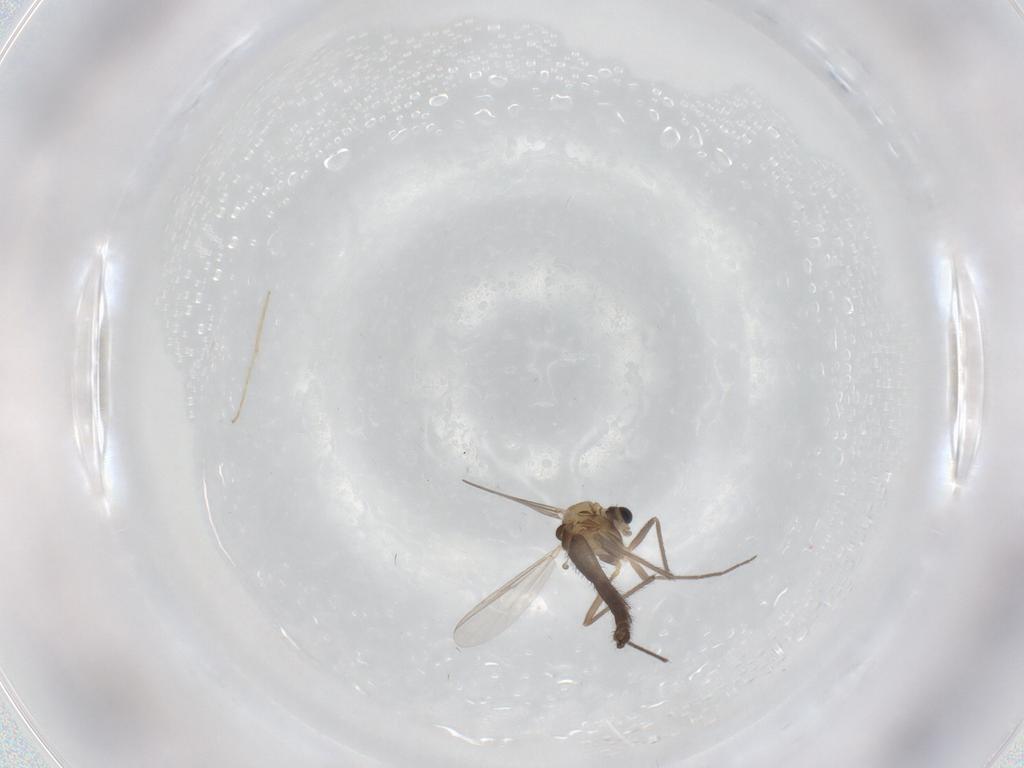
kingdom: Animalia
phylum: Arthropoda
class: Insecta
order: Diptera
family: Chironomidae
